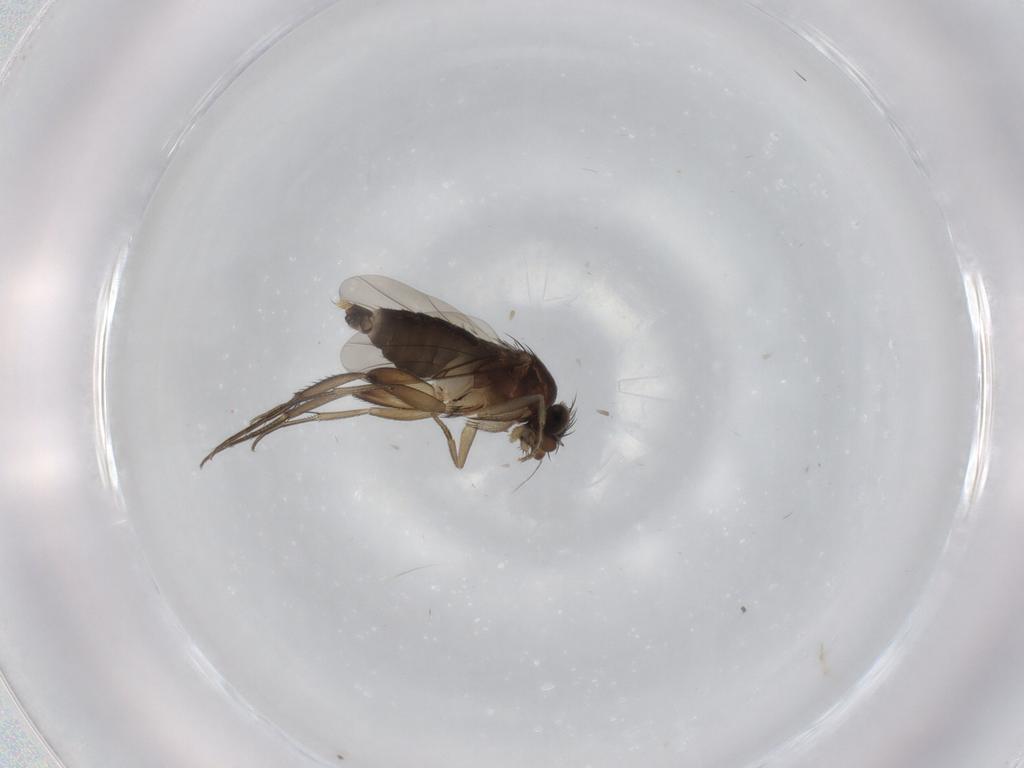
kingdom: Animalia
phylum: Arthropoda
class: Insecta
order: Diptera
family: Phoridae
